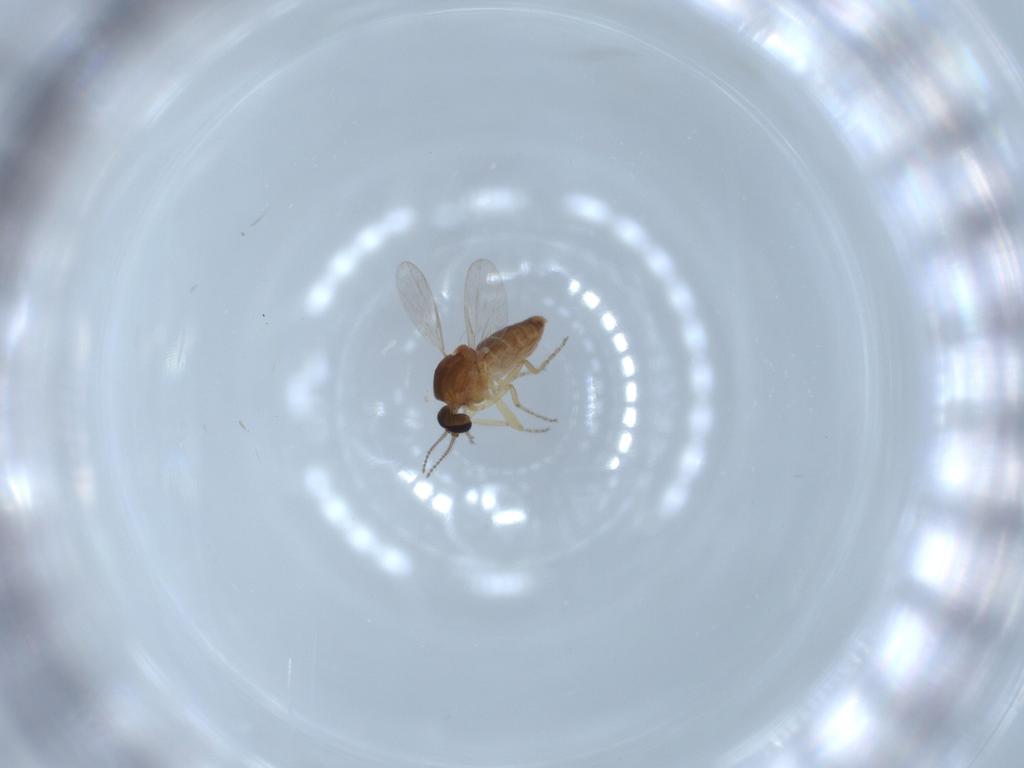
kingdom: Animalia
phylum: Arthropoda
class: Insecta
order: Diptera
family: Ceratopogonidae
